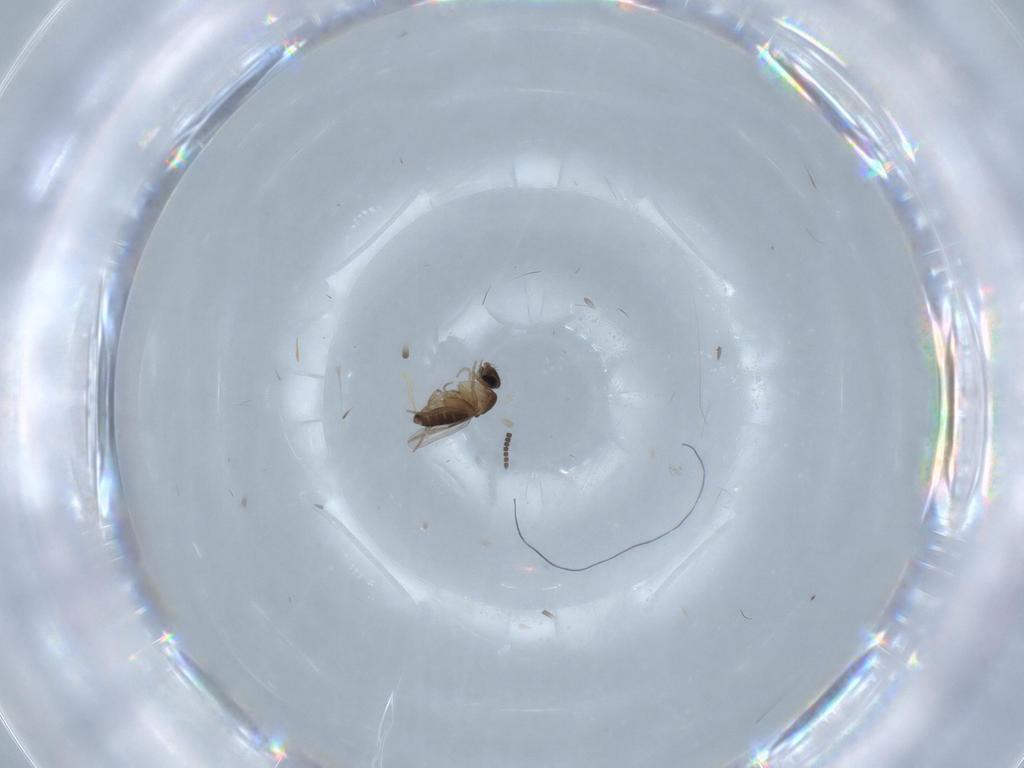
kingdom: Animalia
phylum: Arthropoda
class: Insecta
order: Diptera
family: Phoridae
